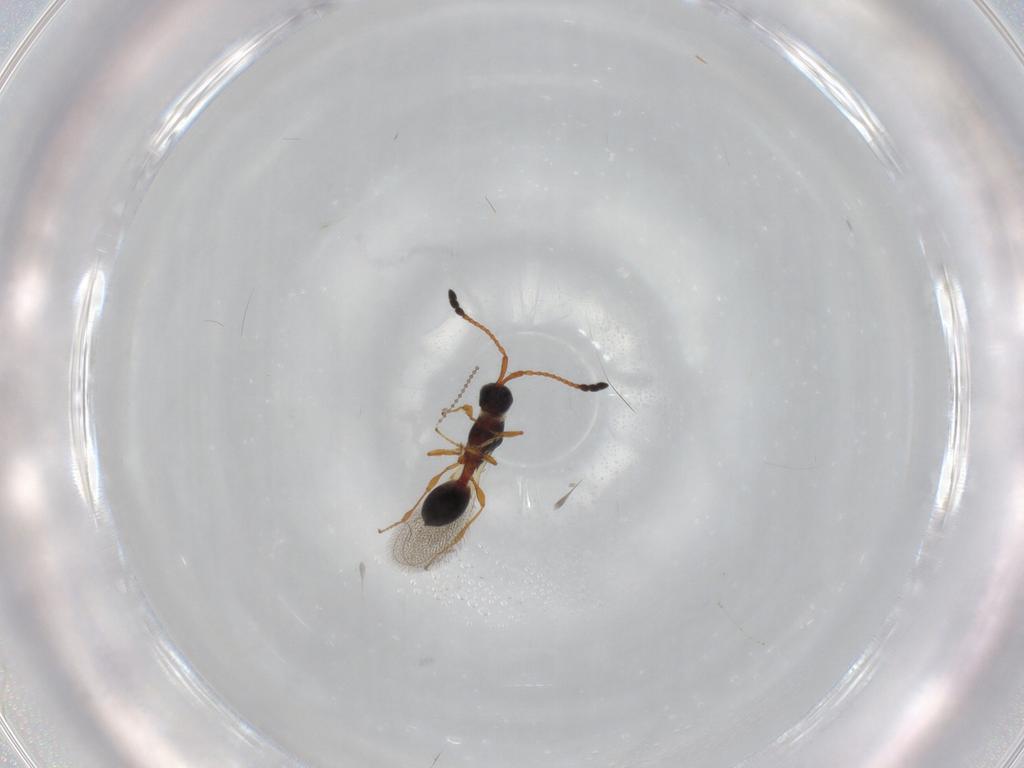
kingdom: Animalia
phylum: Arthropoda
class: Insecta
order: Hymenoptera
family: Diapriidae
